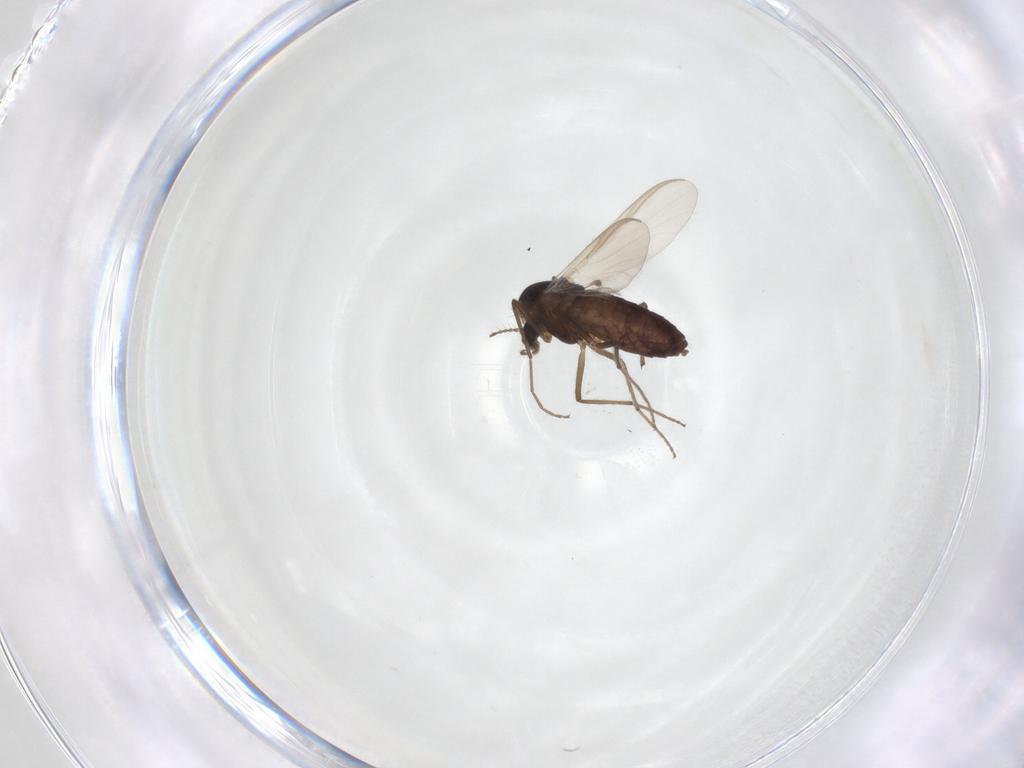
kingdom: Animalia
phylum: Arthropoda
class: Insecta
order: Diptera
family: Chironomidae
